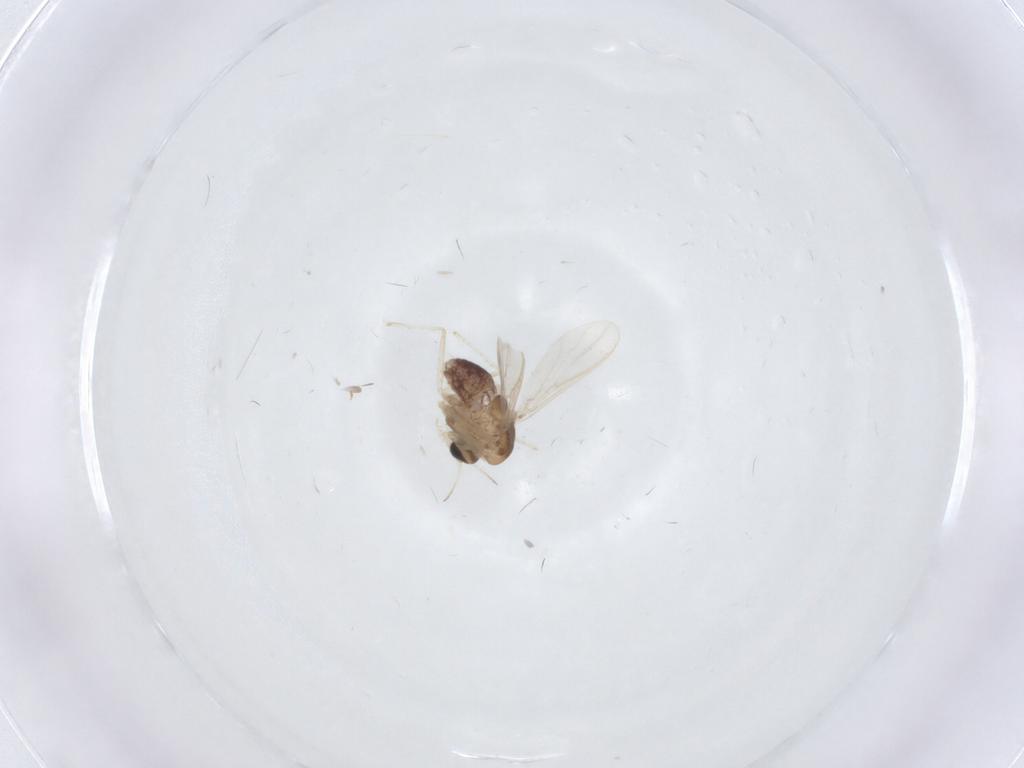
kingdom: Animalia
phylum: Arthropoda
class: Insecta
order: Diptera
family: Chironomidae
